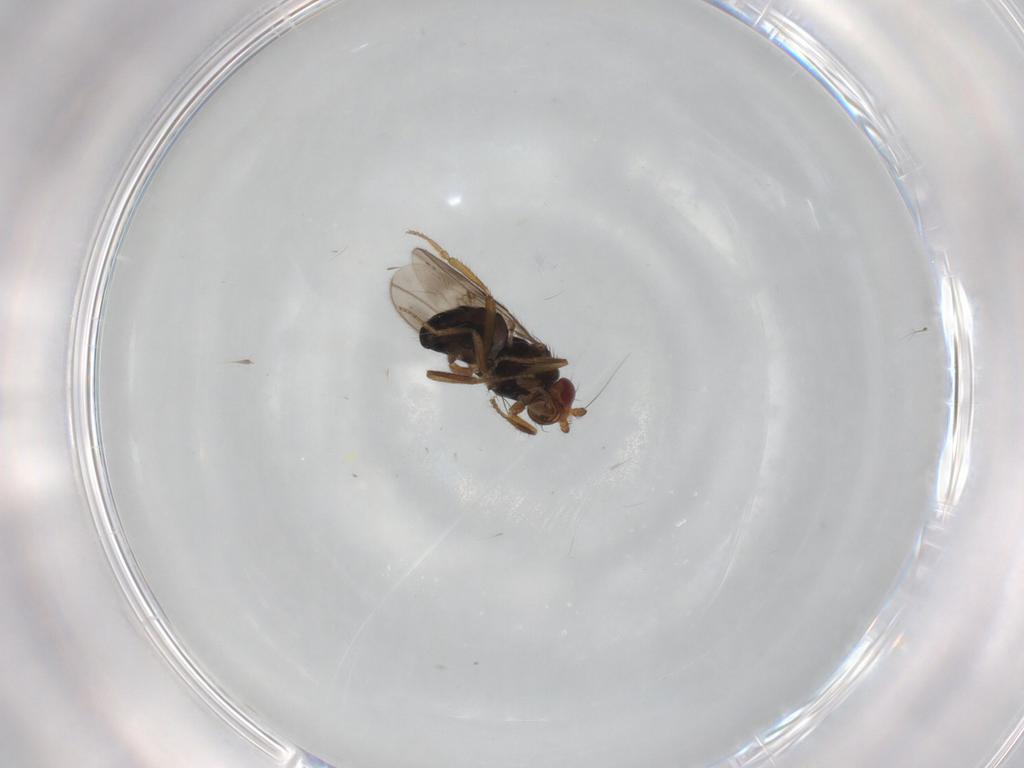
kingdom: Animalia
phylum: Arthropoda
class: Insecta
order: Diptera
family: Sphaeroceridae
